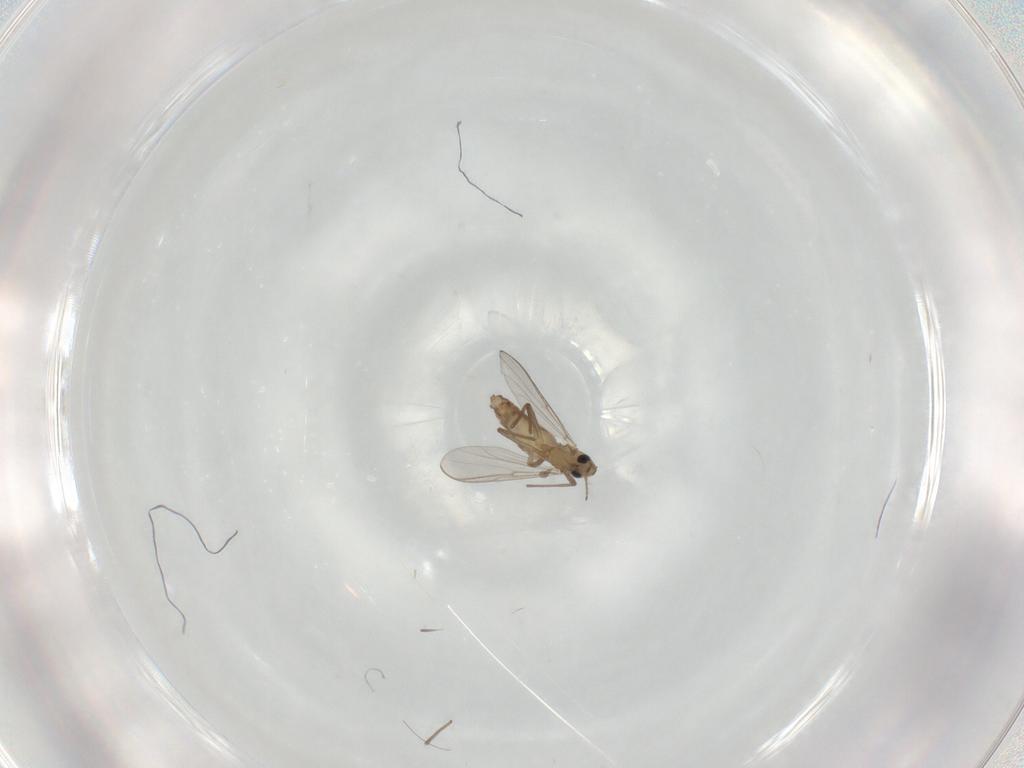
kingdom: Animalia
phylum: Arthropoda
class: Insecta
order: Diptera
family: Chironomidae
